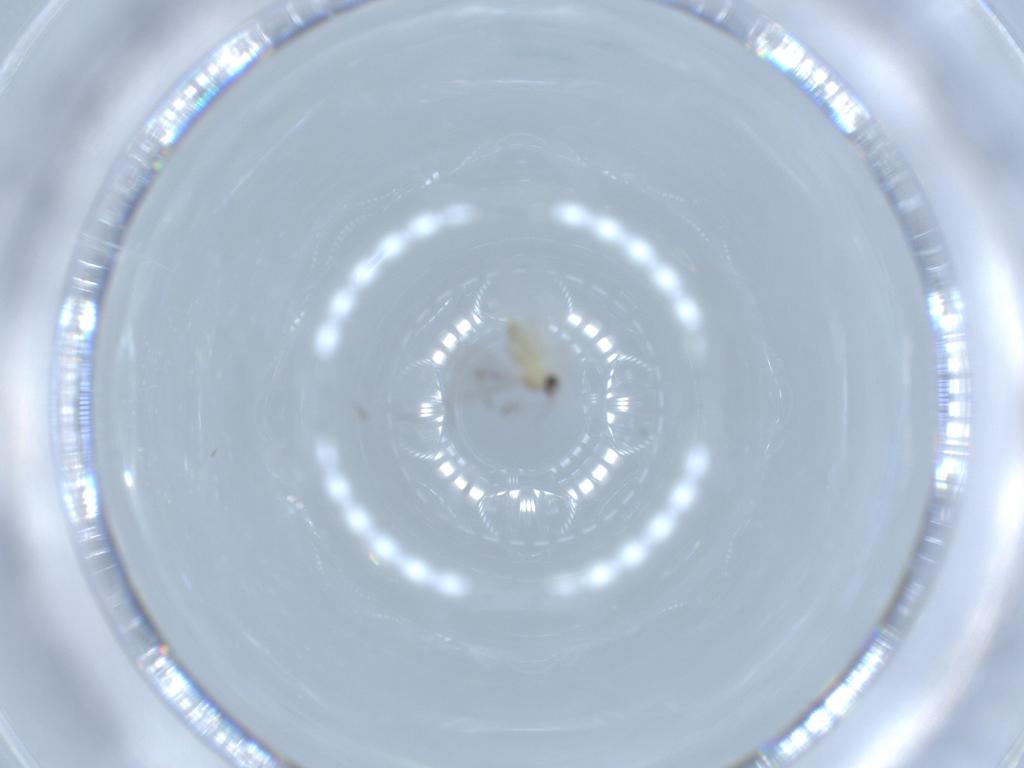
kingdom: Animalia
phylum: Arthropoda
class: Insecta
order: Diptera
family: Cecidomyiidae
